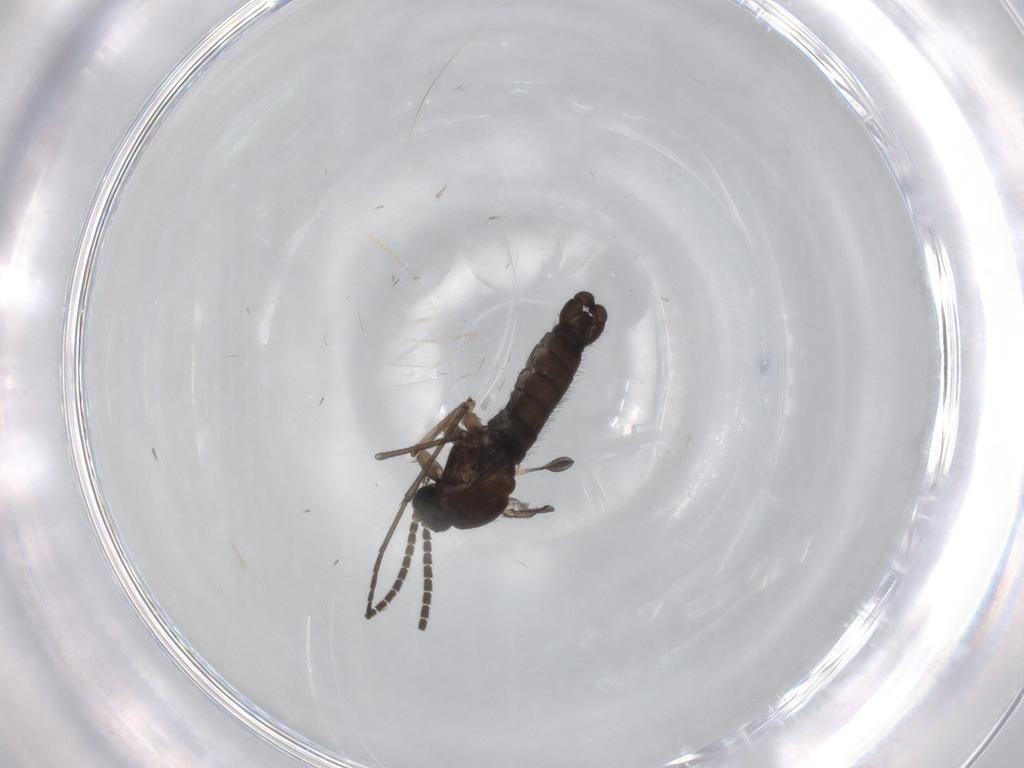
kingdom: Animalia
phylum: Arthropoda
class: Insecta
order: Diptera
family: Sciaridae
